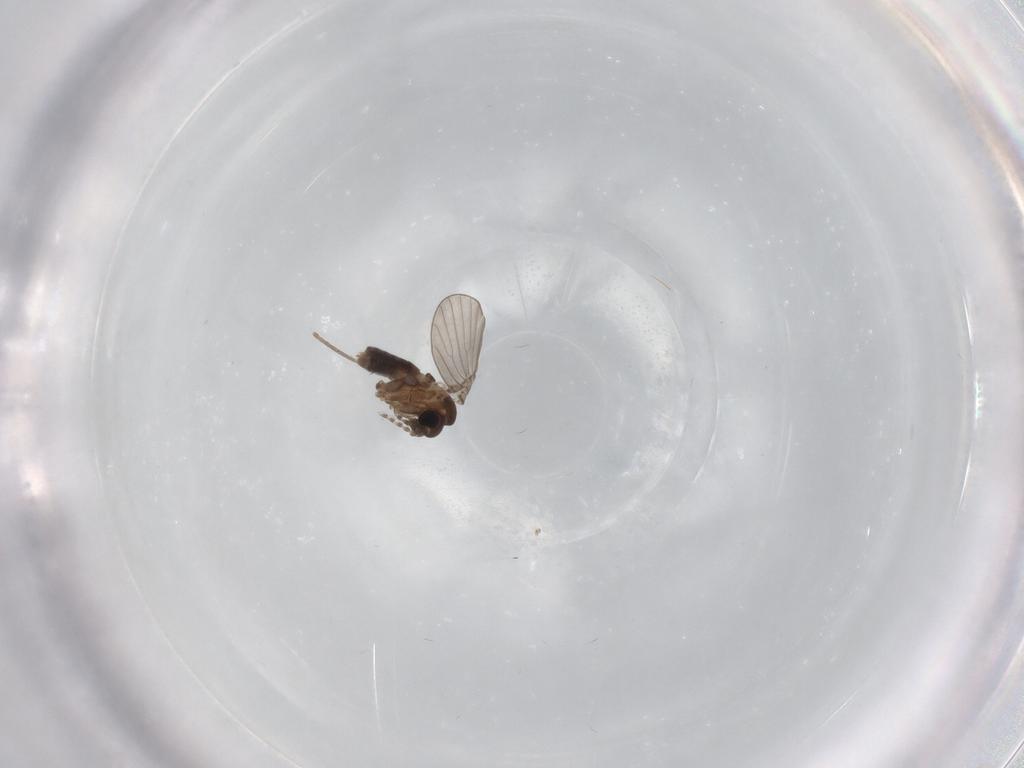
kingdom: Animalia
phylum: Arthropoda
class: Insecta
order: Diptera
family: Psychodidae
